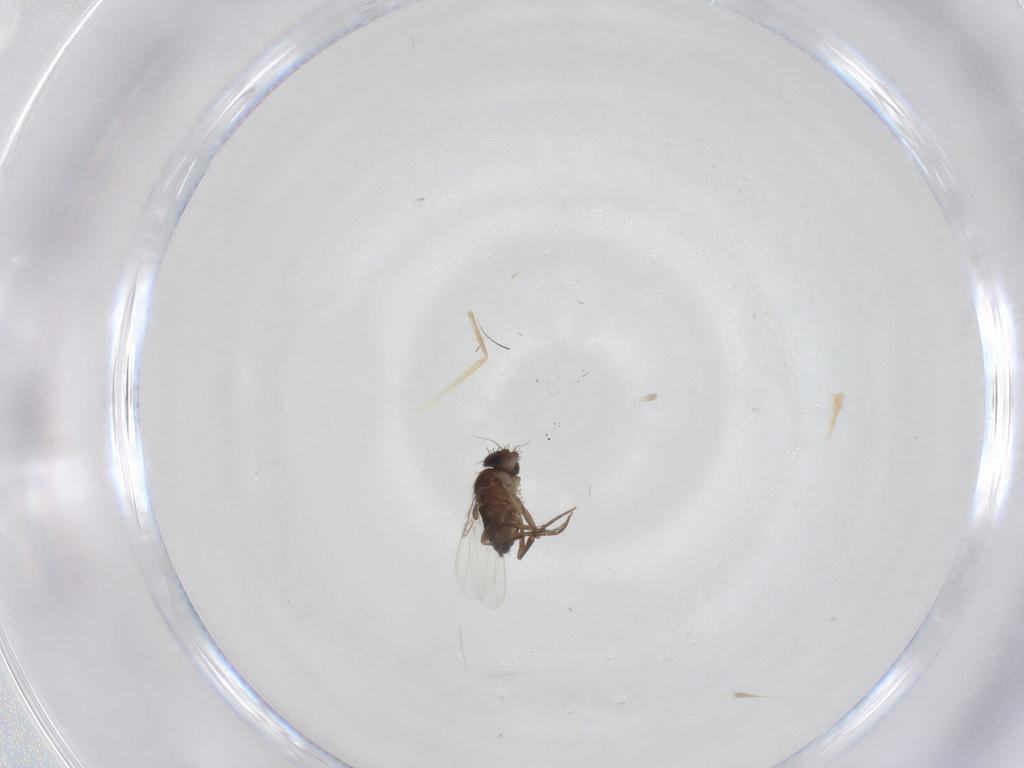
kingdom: Animalia
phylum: Arthropoda
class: Insecta
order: Diptera
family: Phoridae
